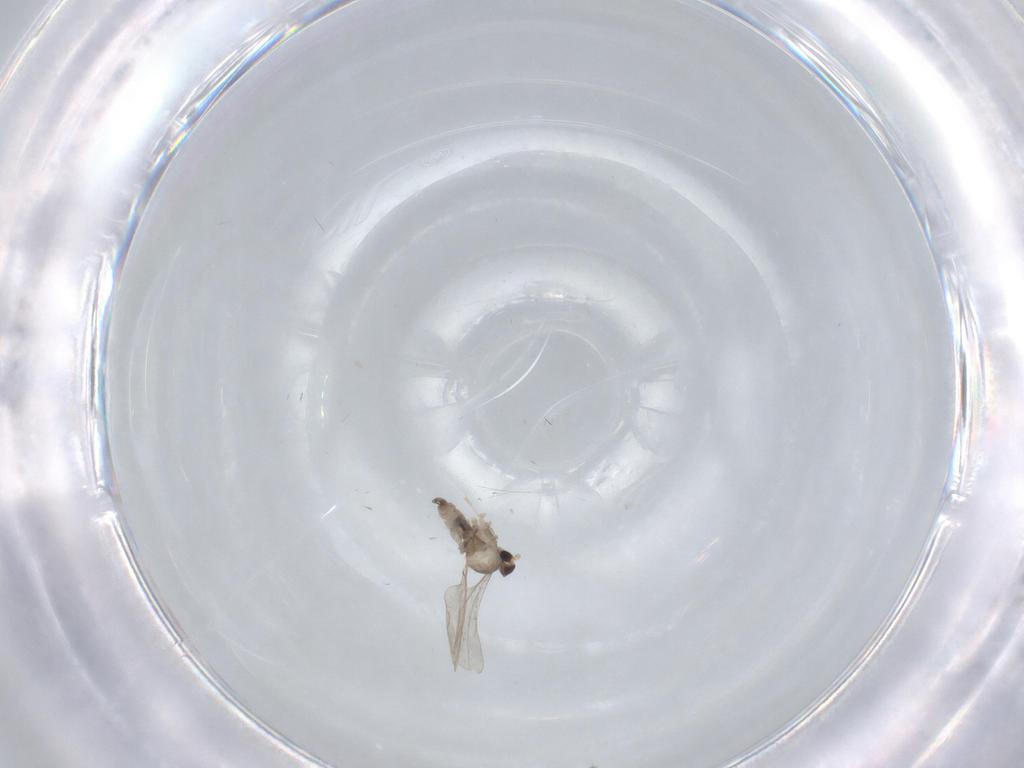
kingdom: Animalia
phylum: Arthropoda
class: Insecta
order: Diptera
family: Cecidomyiidae
